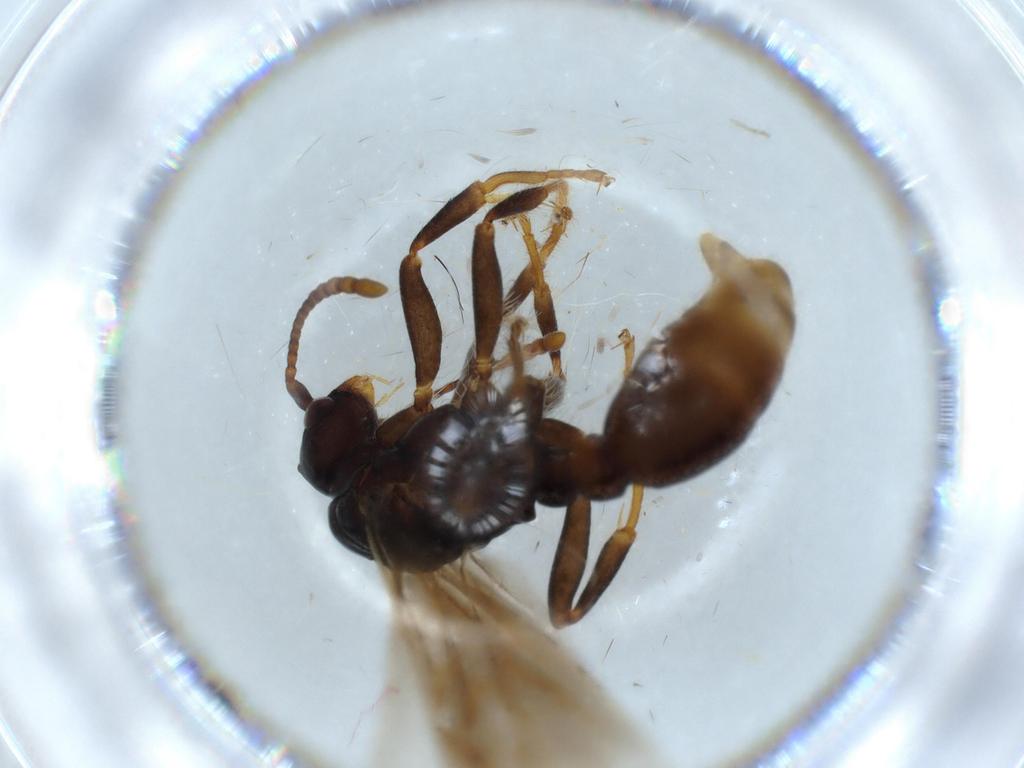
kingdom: Animalia
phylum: Arthropoda
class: Insecta
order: Hymenoptera
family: Formicidae
